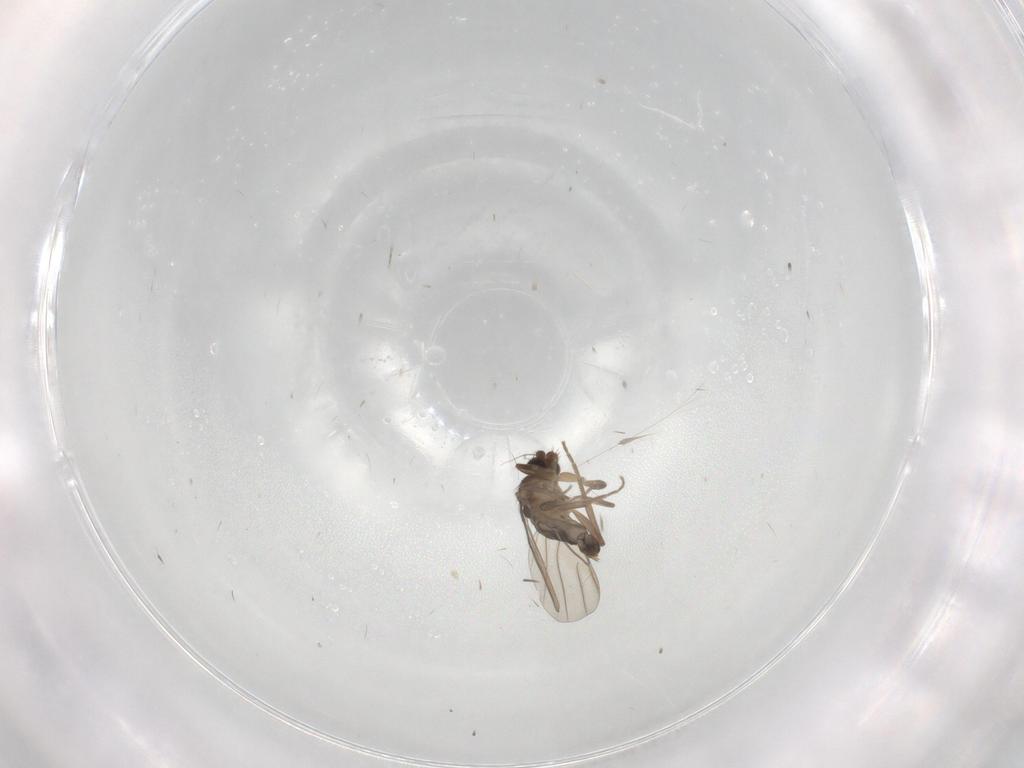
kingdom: Animalia
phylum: Arthropoda
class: Insecta
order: Diptera
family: Phoridae
